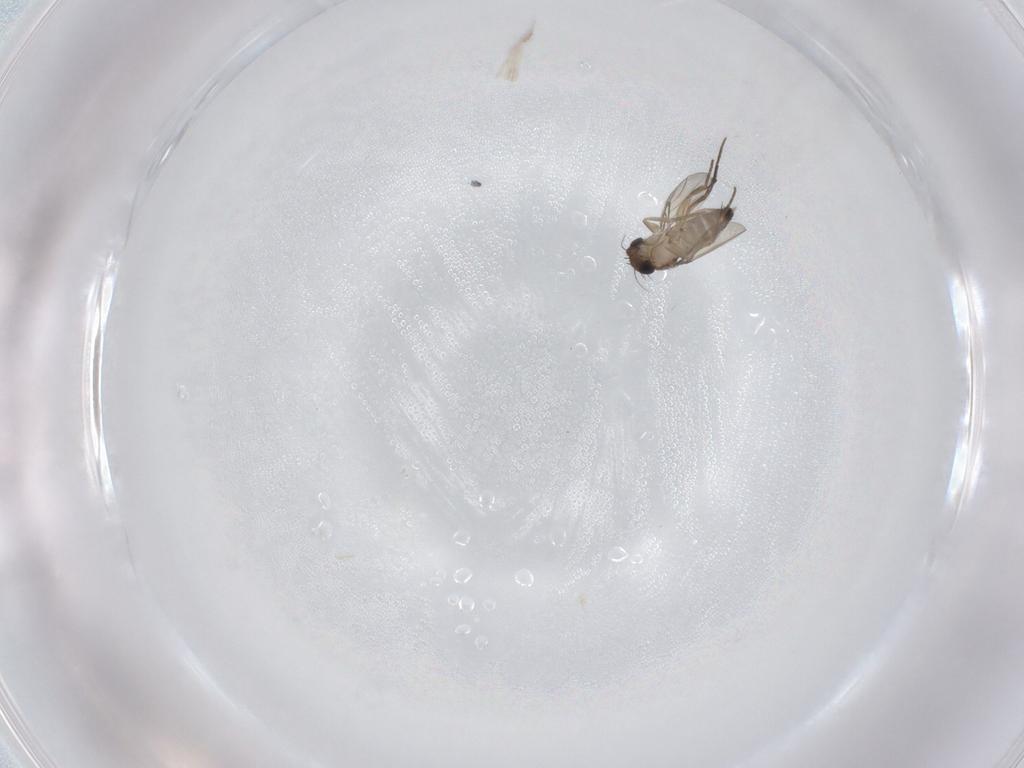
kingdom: Animalia
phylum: Arthropoda
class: Insecta
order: Diptera
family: Phoridae
